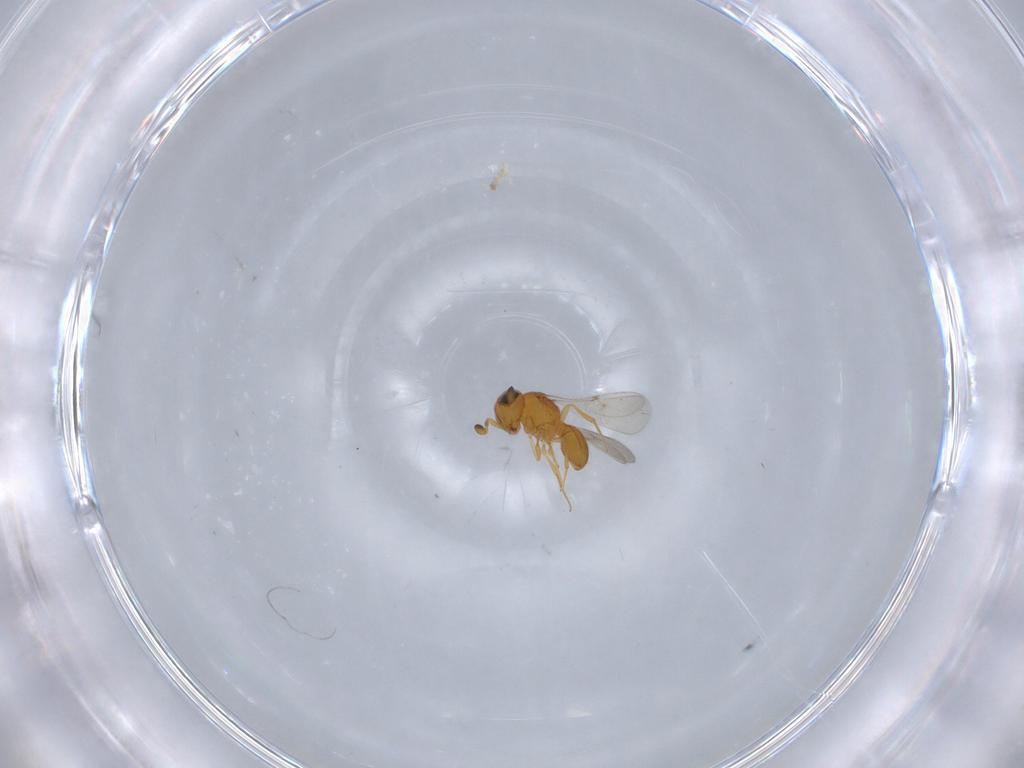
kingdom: Animalia
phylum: Arthropoda
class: Insecta
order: Hymenoptera
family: Scelionidae
